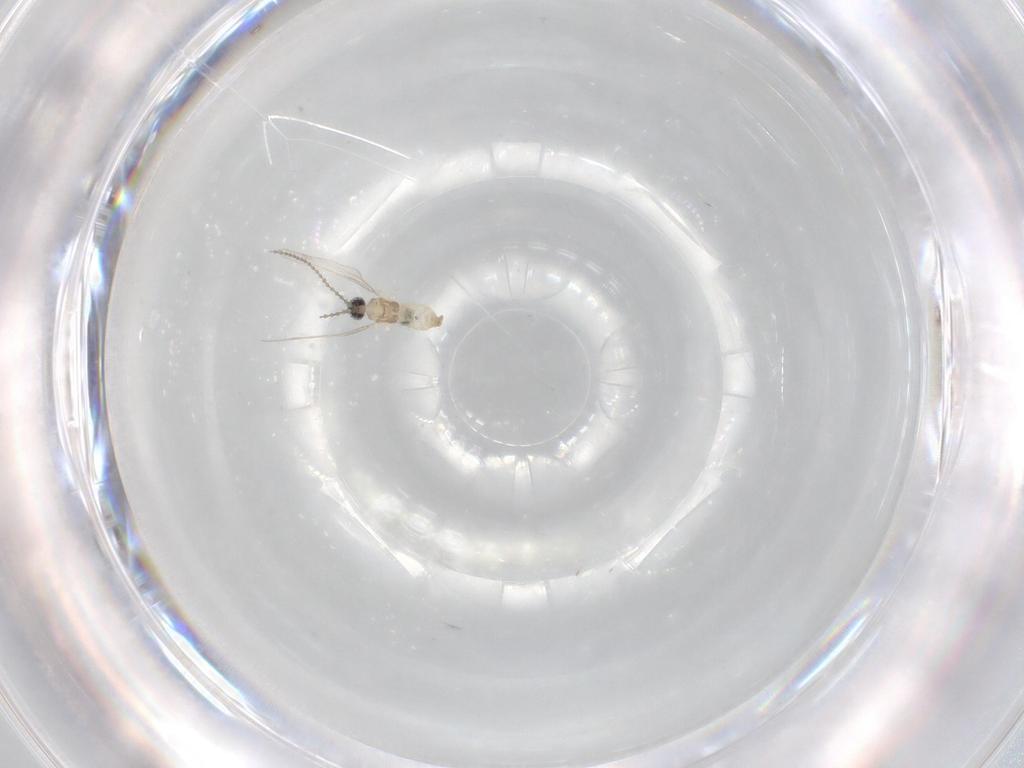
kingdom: Animalia
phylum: Arthropoda
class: Insecta
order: Diptera
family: Cecidomyiidae
